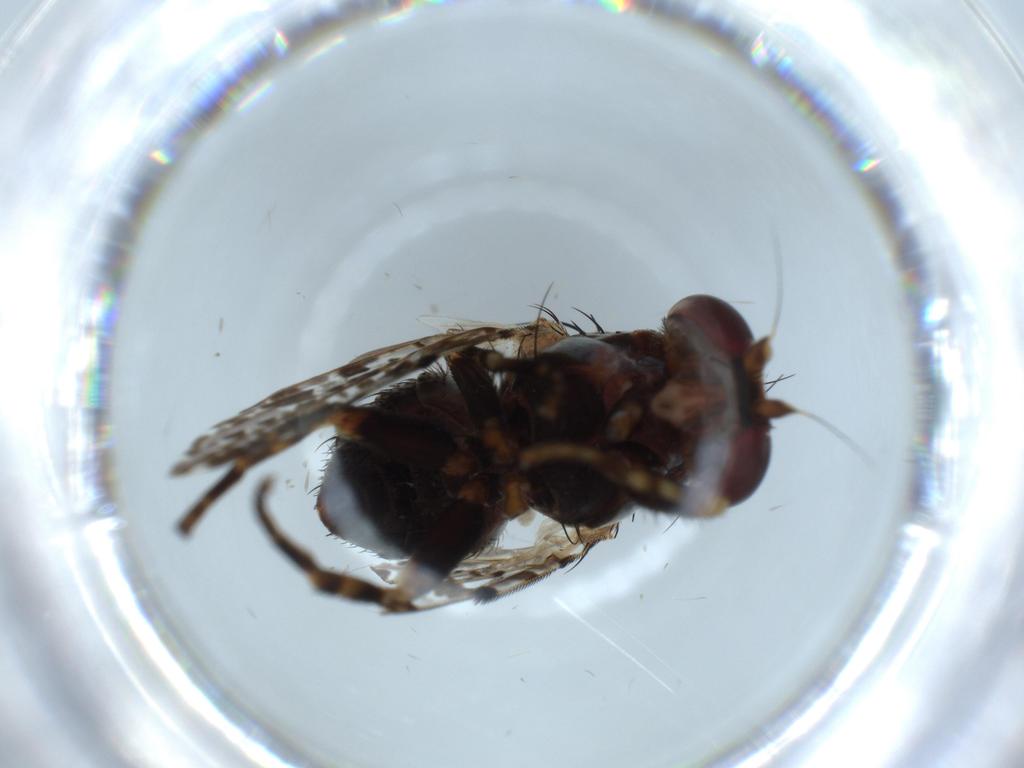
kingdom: Animalia
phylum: Arthropoda
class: Insecta
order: Diptera
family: Odiniidae
